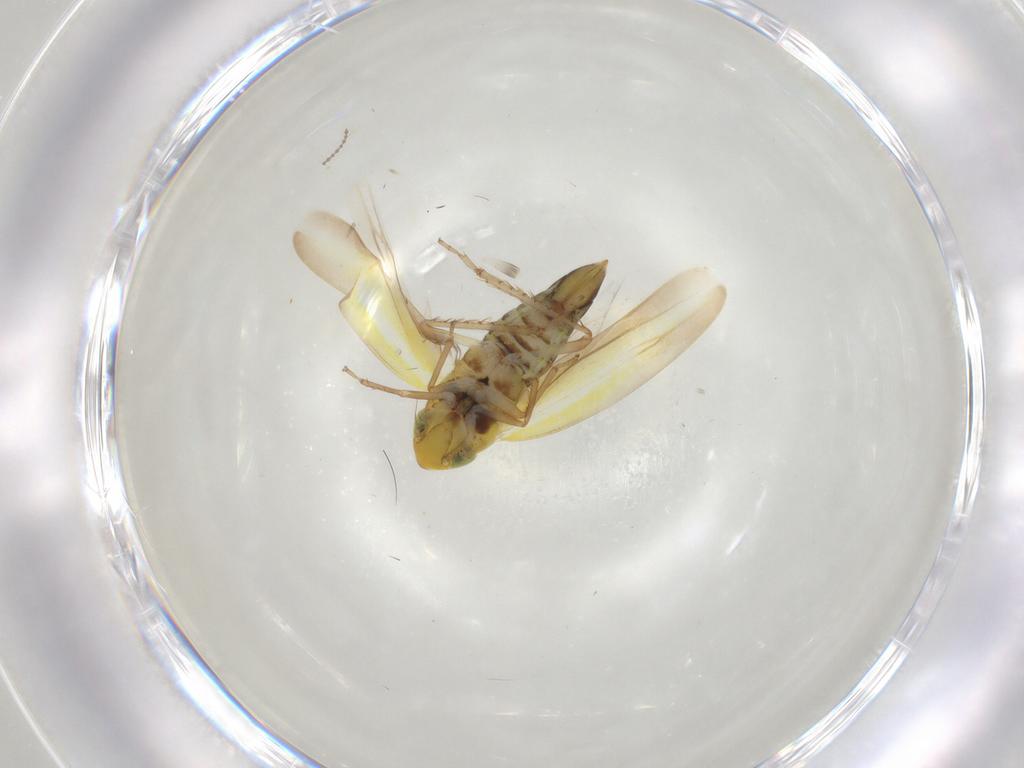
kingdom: Animalia
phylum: Arthropoda
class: Insecta
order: Hemiptera
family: Cicadellidae
